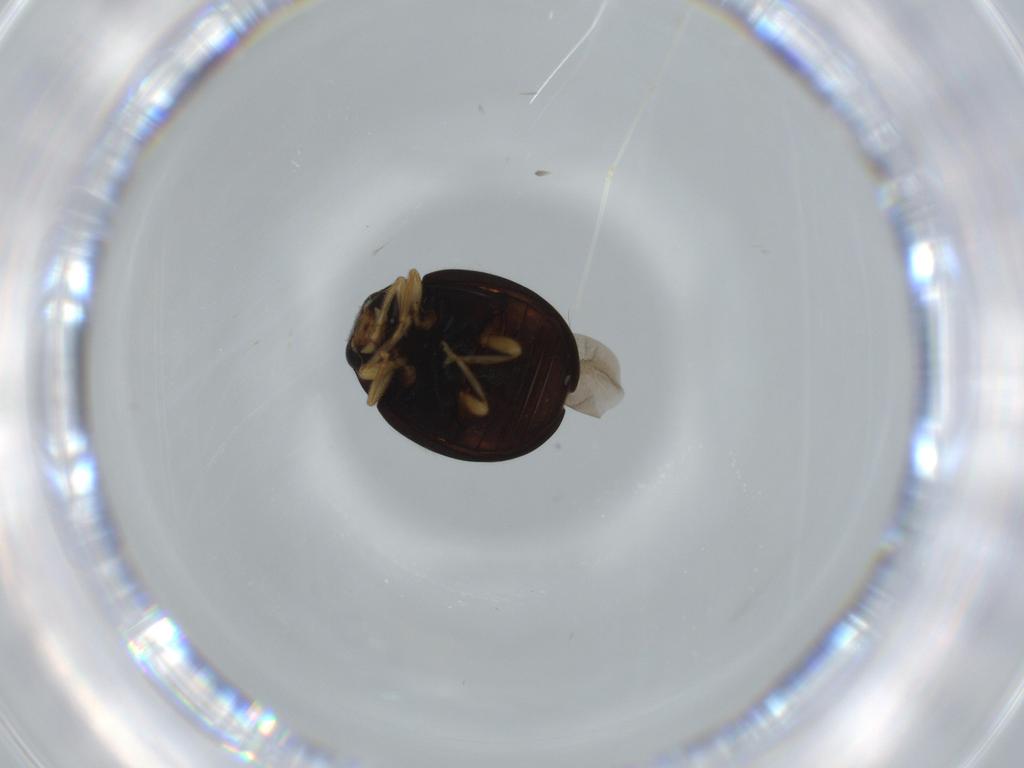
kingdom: Animalia
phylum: Arthropoda
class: Insecta
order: Coleoptera
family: Coccinellidae
